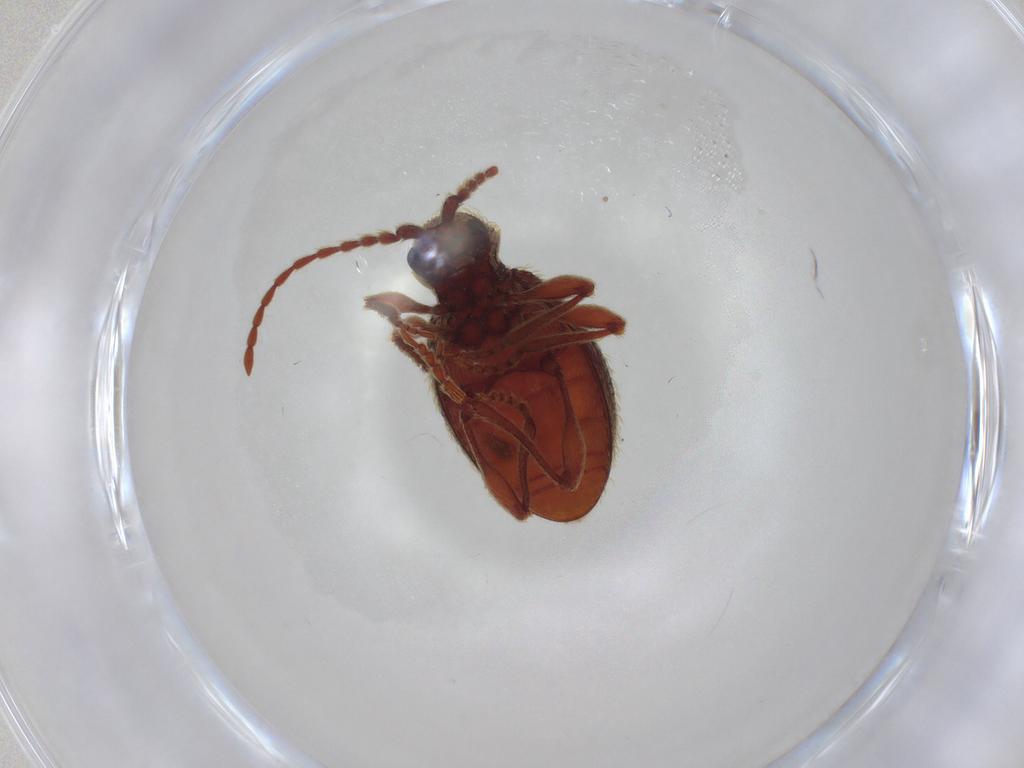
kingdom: Animalia
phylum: Arthropoda
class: Insecta
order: Coleoptera
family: Ptinidae
